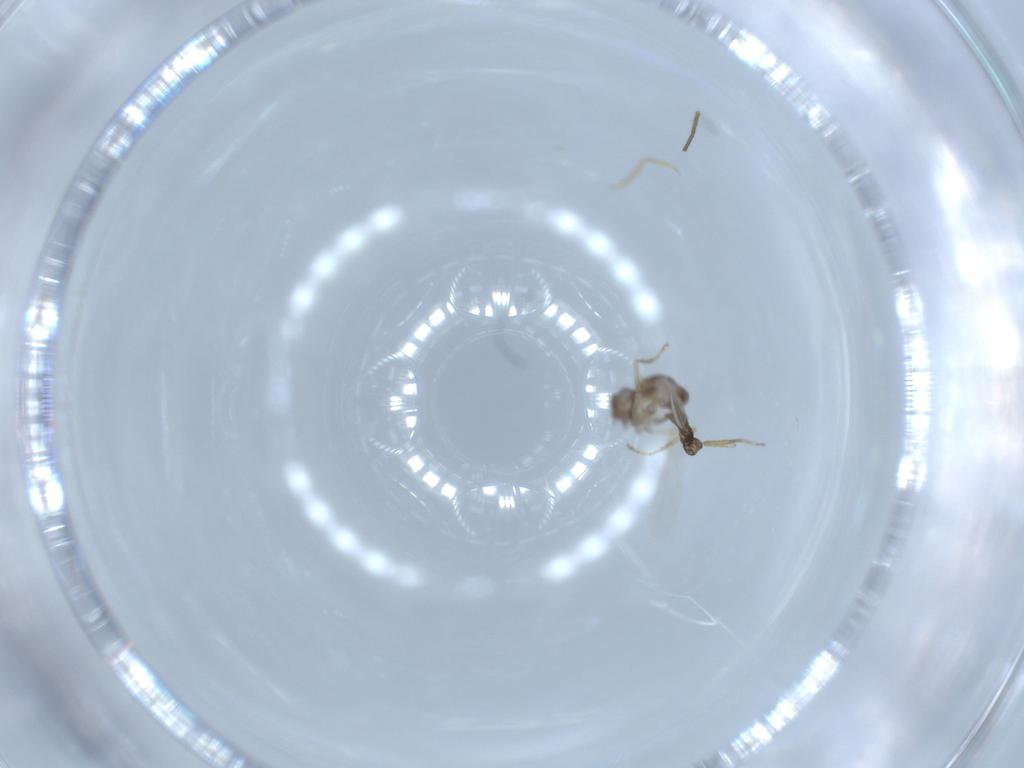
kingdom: Animalia
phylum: Arthropoda
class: Insecta
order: Diptera
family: Ceratopogonidae
